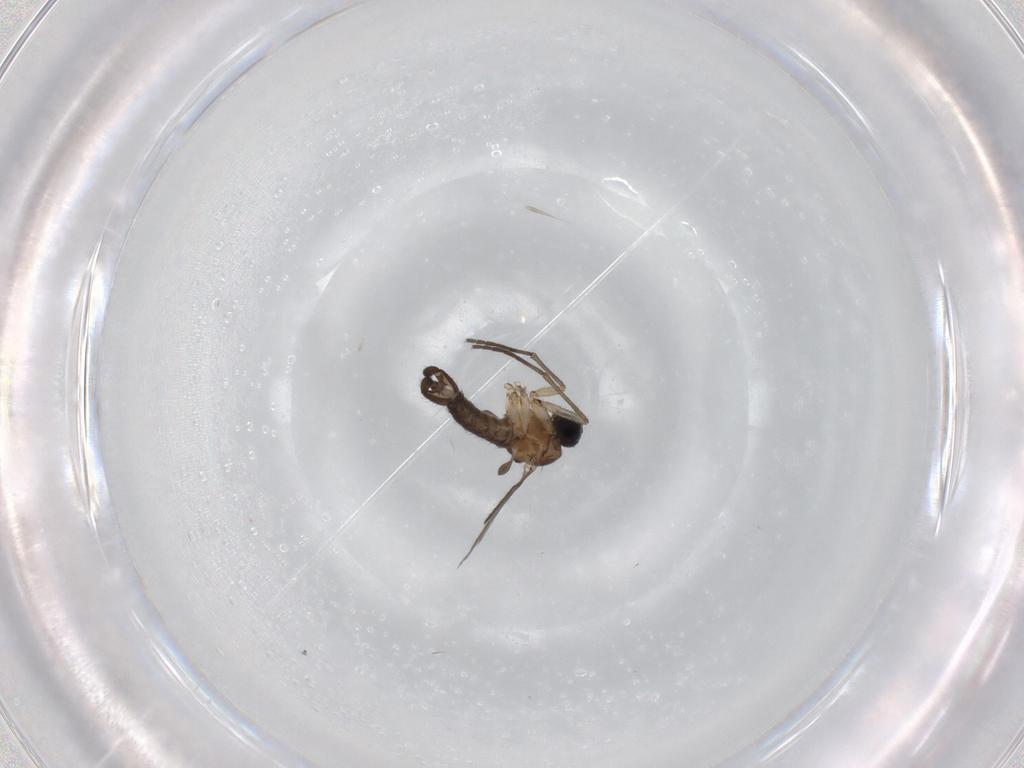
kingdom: Animalia
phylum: Arthropoda
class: Insecta
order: Diptera
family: Sciaridae
